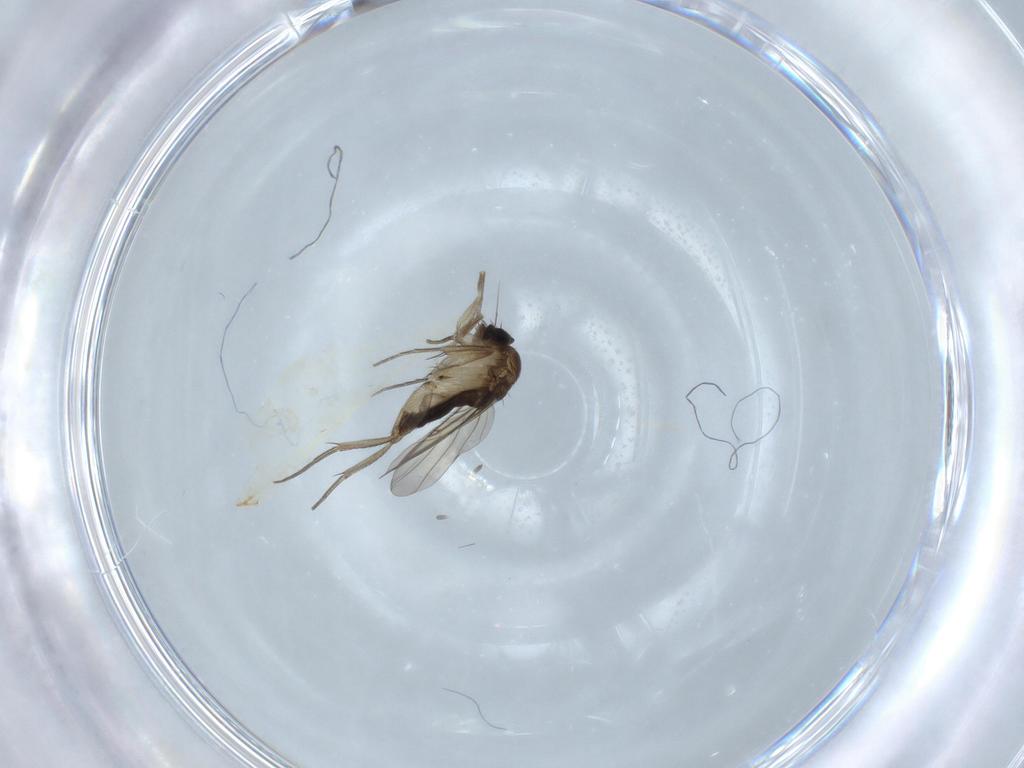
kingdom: Animalia
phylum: Arthropoda
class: Insecta
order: Diptera
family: Phoridae
